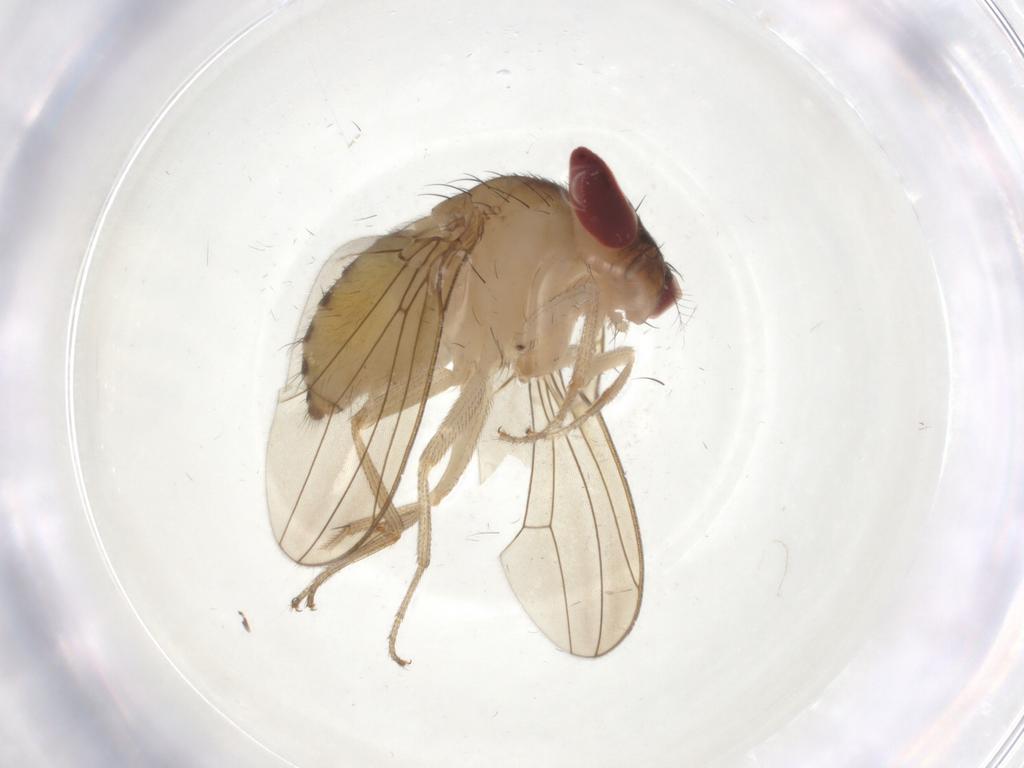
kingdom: Animalia
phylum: Arthropoda
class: Insecta
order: Diptera
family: Drosophilidae
